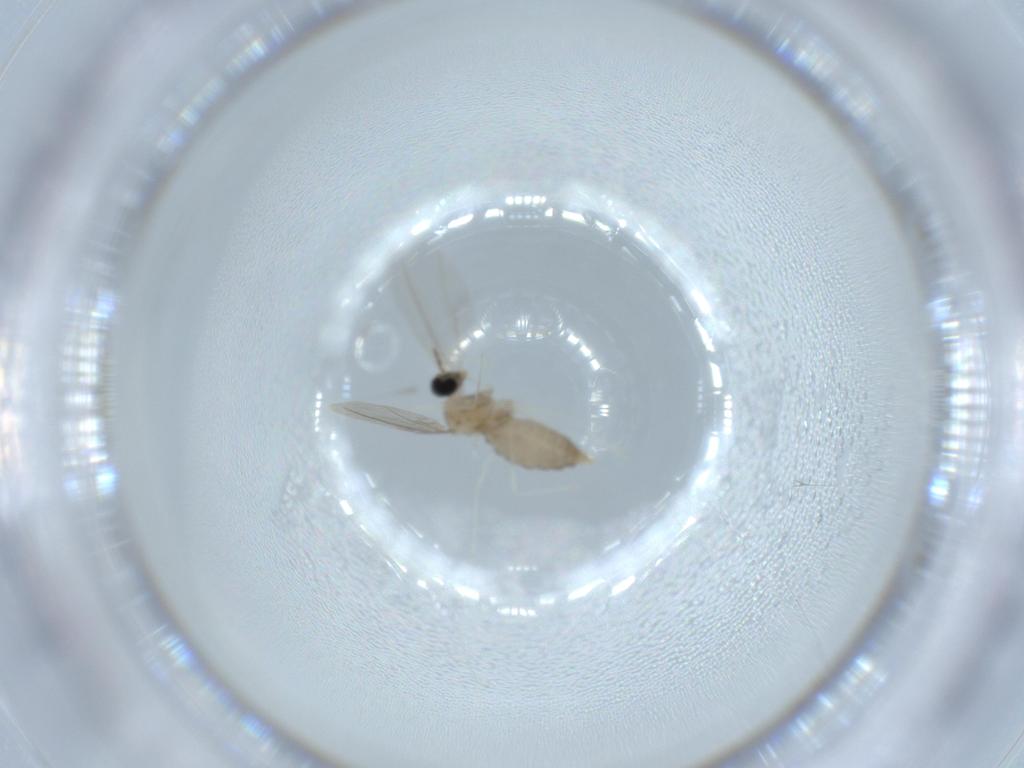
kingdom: Animalia
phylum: Arthropoda
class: Insecta
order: Diptera
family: Cecidomyiidae
